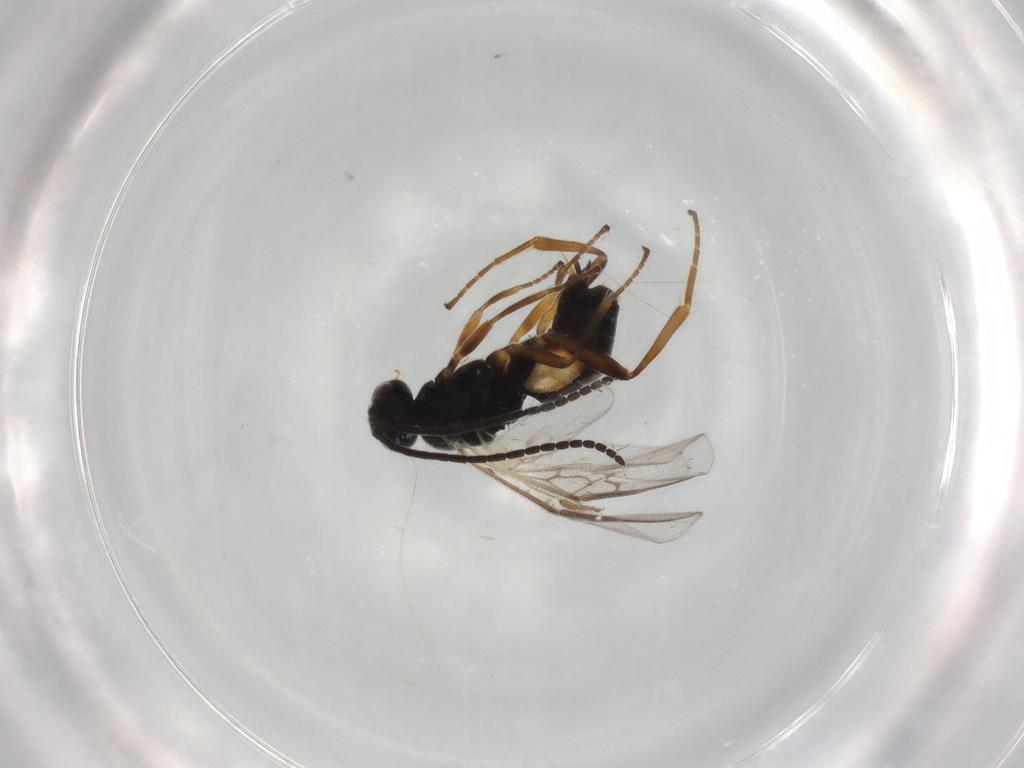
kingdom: Animalia
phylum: Arthropoda
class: Insecta
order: Hymenoptera
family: Braconidae
